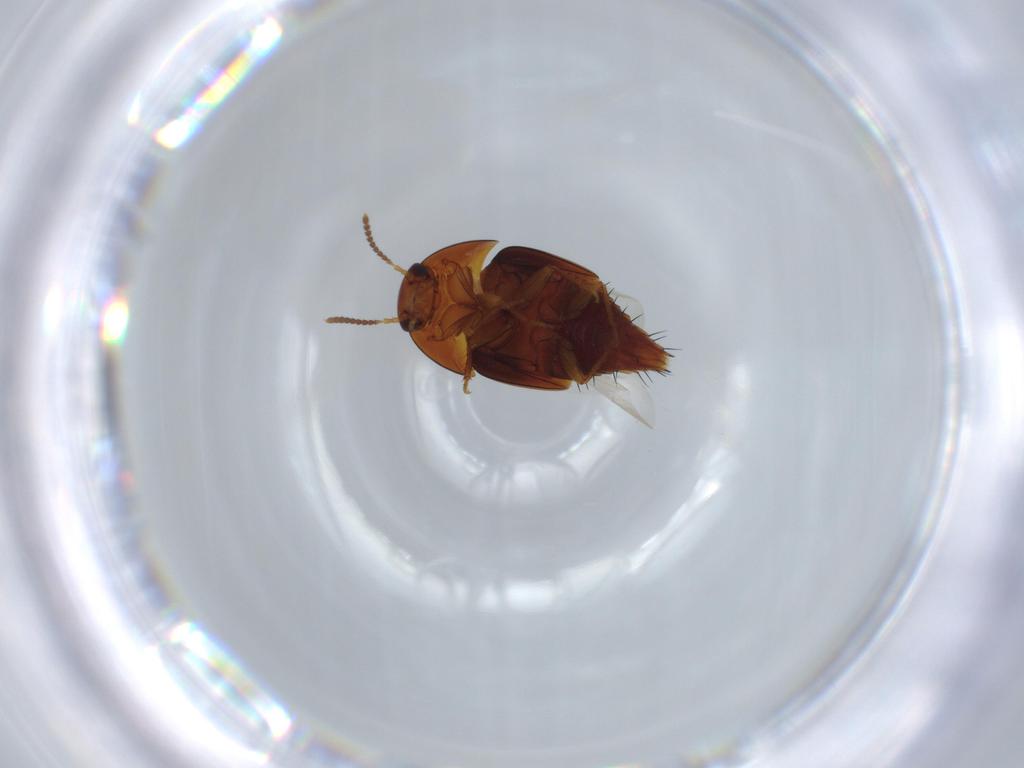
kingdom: Animalia
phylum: Arthropoda
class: Insecta
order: Coleoptera
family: Staphylinidae
